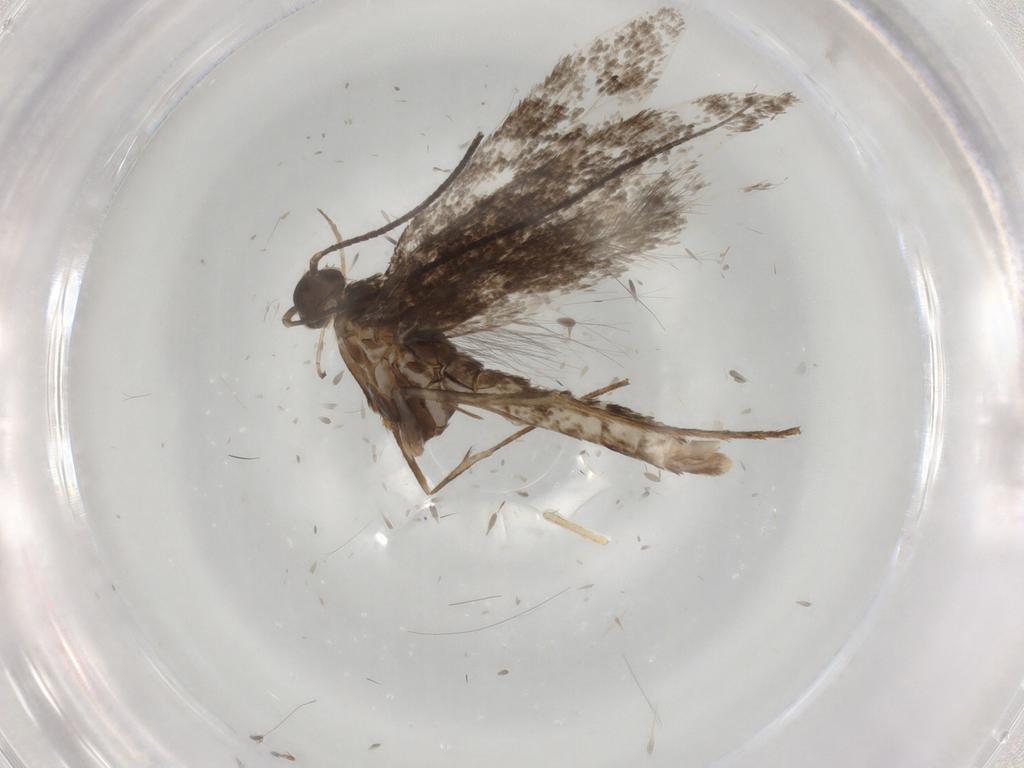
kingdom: Animalia
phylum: Arthropoda
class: Insecta
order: Lepidoptera
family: Gracillariidae
